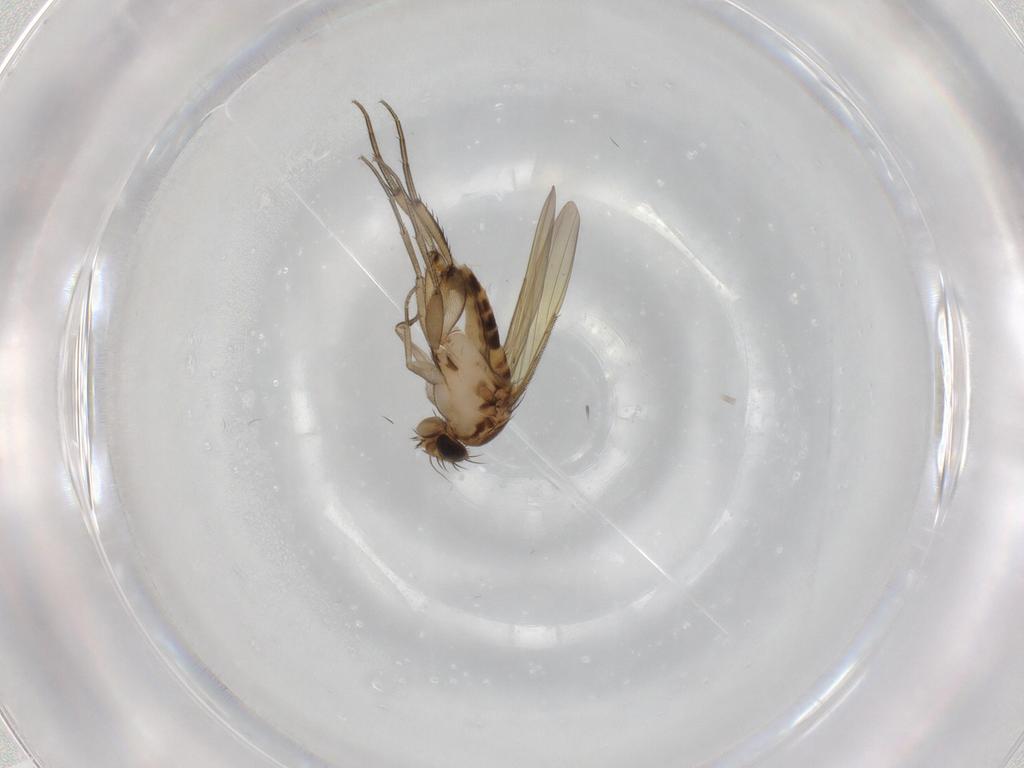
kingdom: Animalia
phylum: Arthropoda
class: Insecta
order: Diptera
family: Phoridae
